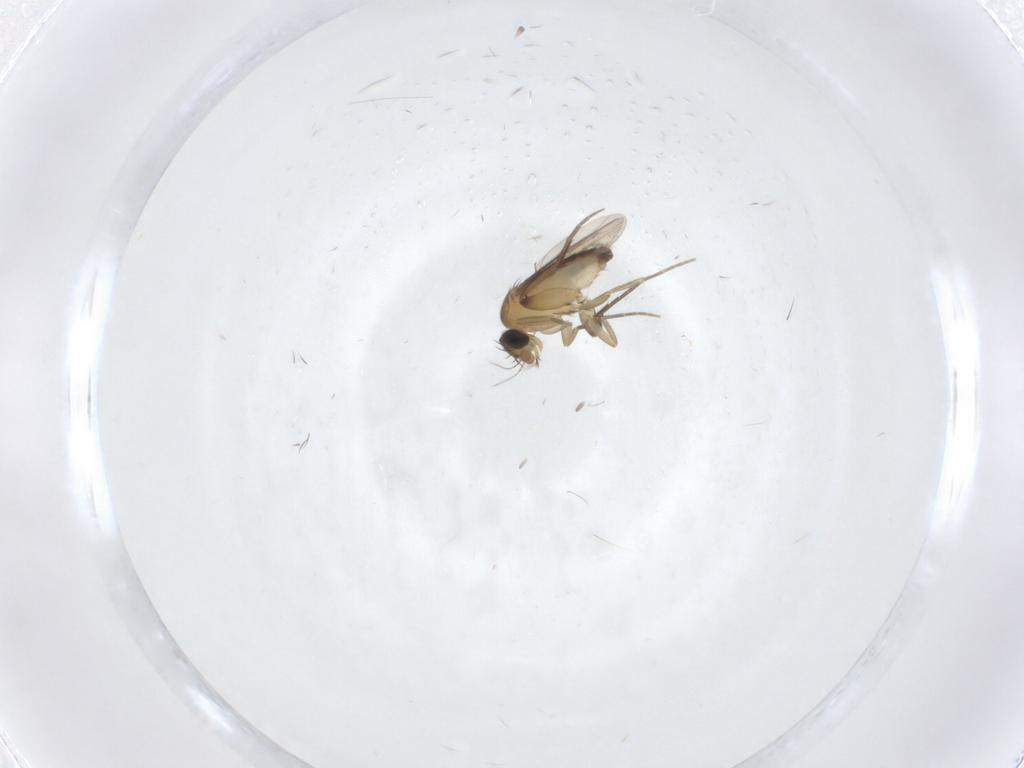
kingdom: Animalia
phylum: Arthropoda
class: Insecta
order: Diptera
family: Phoridae
